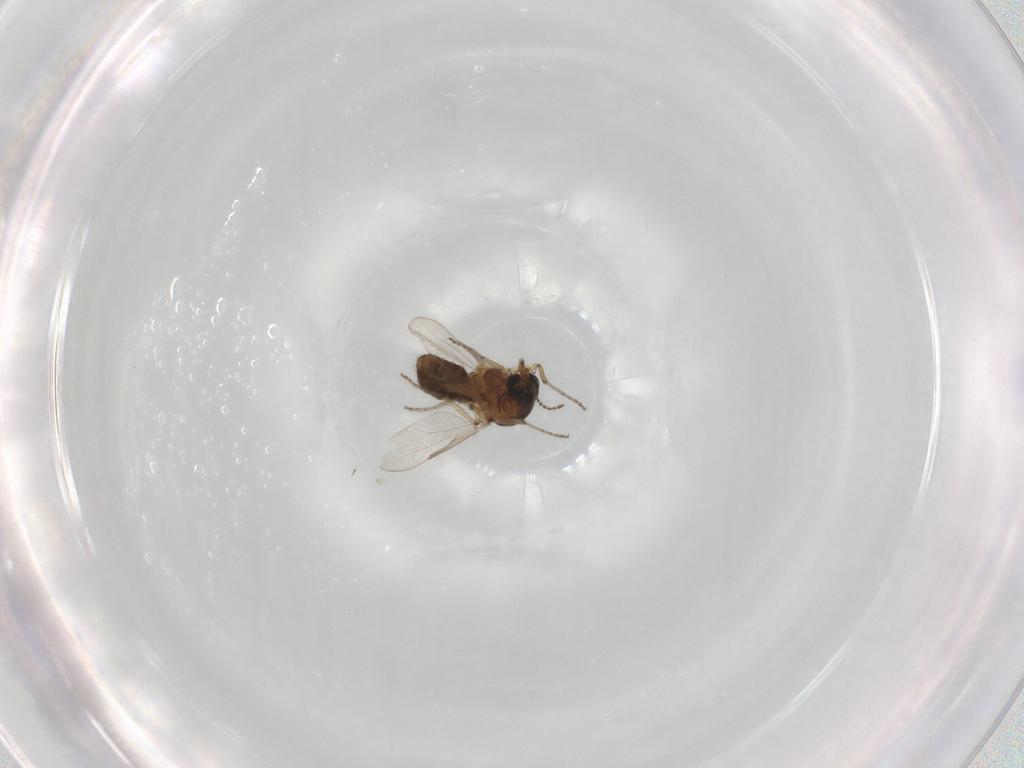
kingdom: Animalia
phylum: Arthropoda
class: Insecta
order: Diptera
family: Ceratopogonidae
